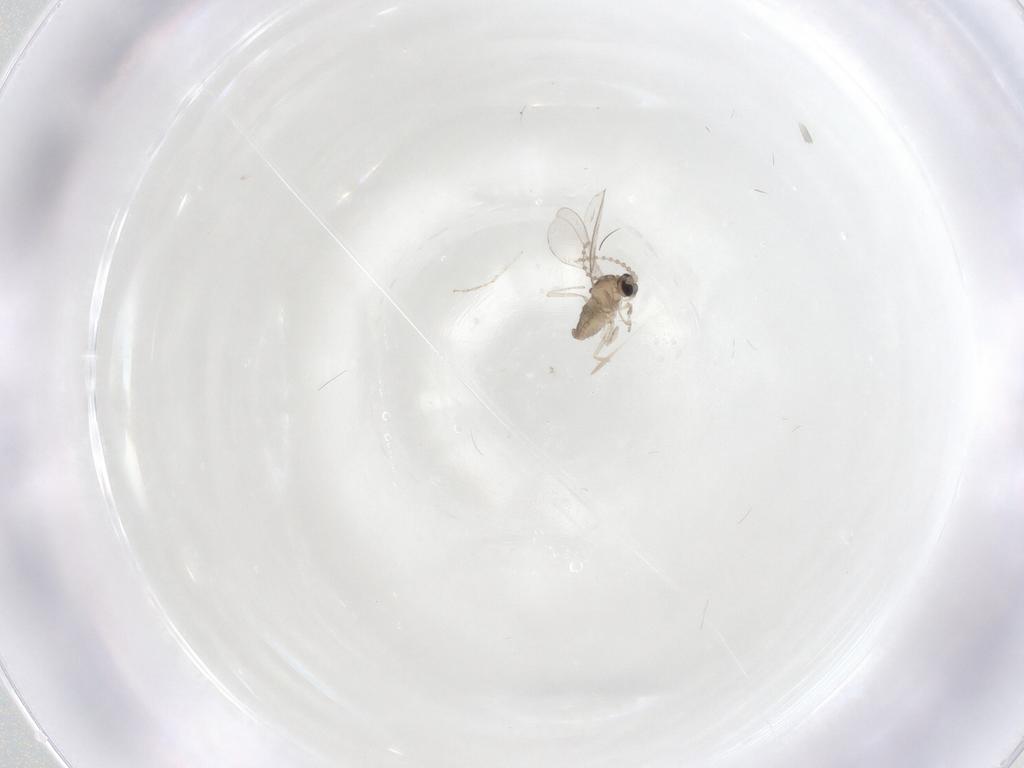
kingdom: Animalia
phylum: Arthropoda
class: Insecta
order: Diptera
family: Cecidomyiidae
